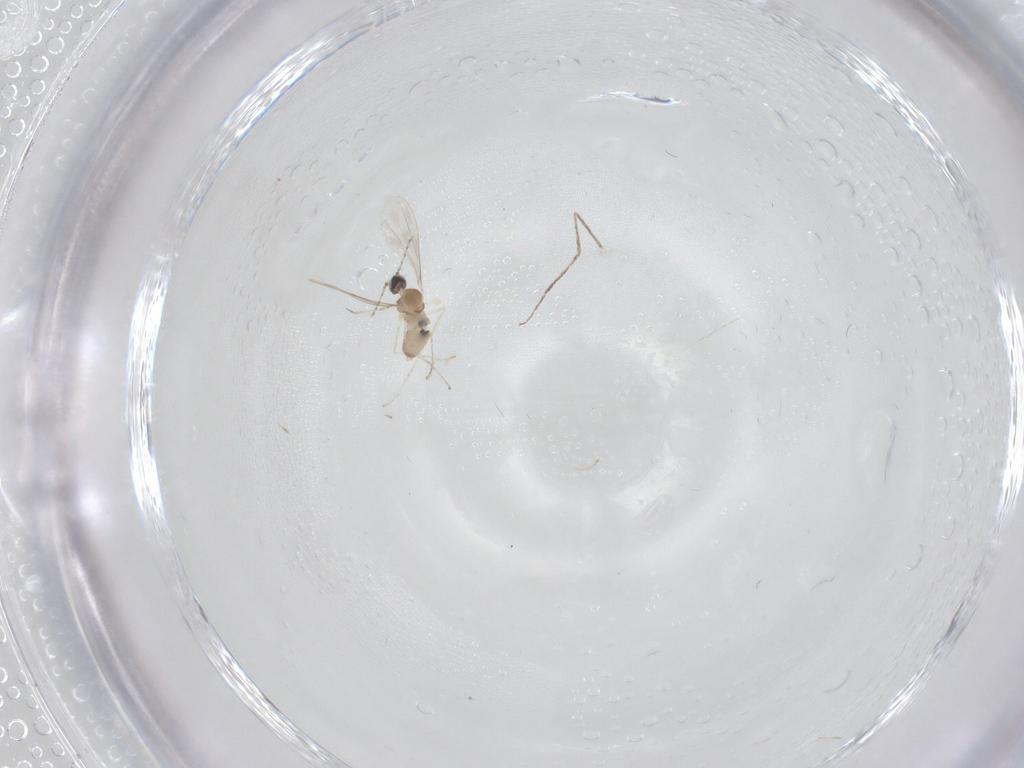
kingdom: Animalia
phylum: Arthropoda
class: Insecta
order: Diptera
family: Cecidomyiidae
